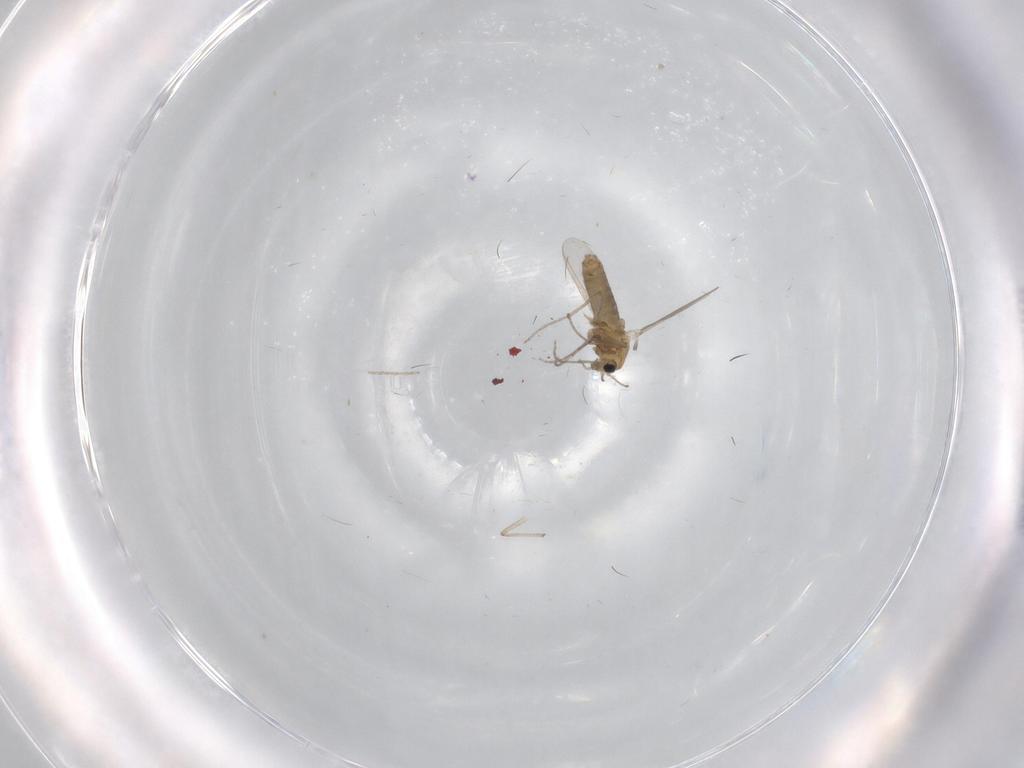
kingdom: Animalia
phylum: Arthropoda
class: Insecta
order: Diptera
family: Chironomidae
